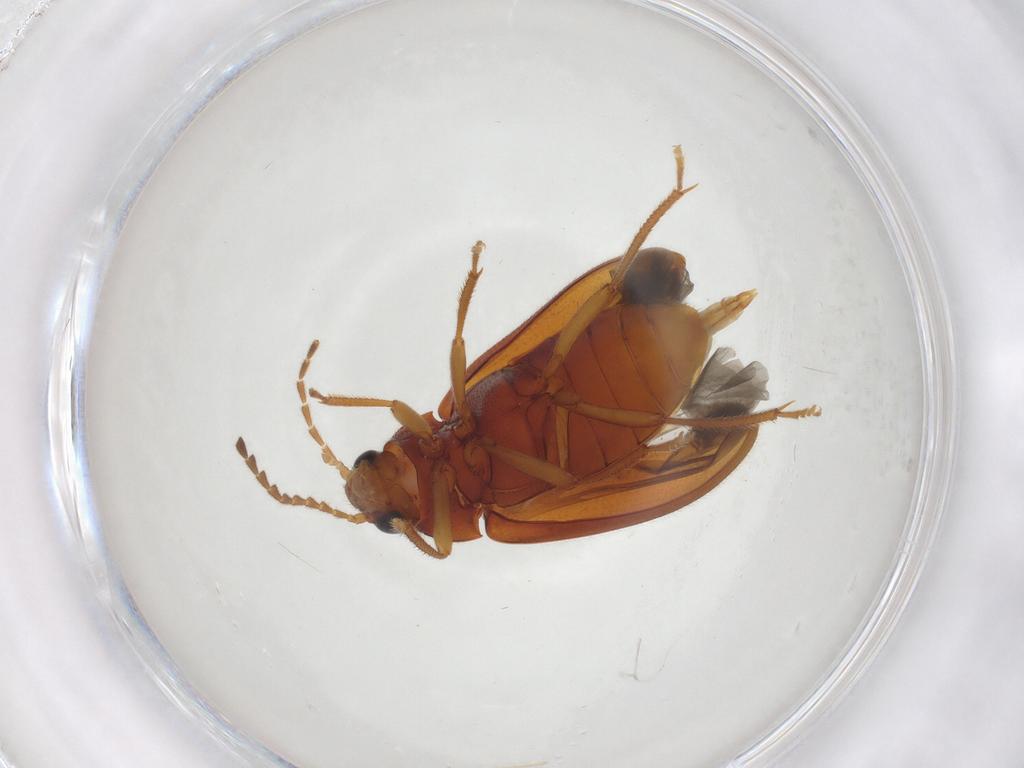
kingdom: Animalia
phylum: Arthropoda
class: Insecta
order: Coleoptera
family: Ptilodactylidae
